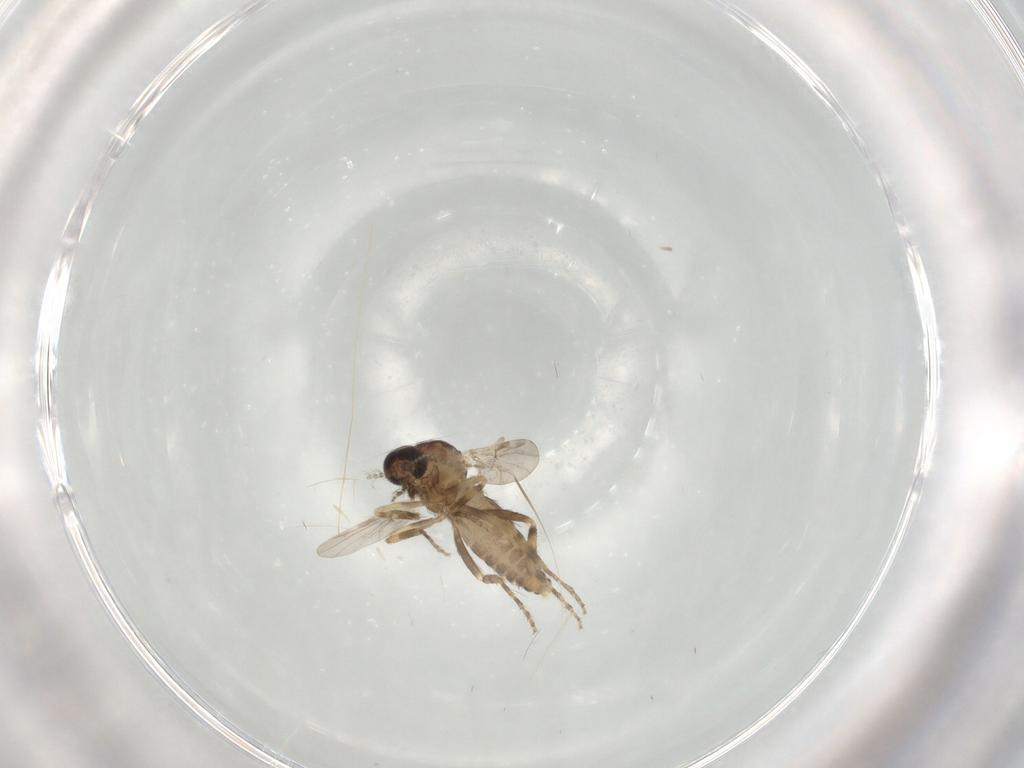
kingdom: Animalia
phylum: Arthropoda
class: Insecta
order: Diptera
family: Ceratopogonidae
